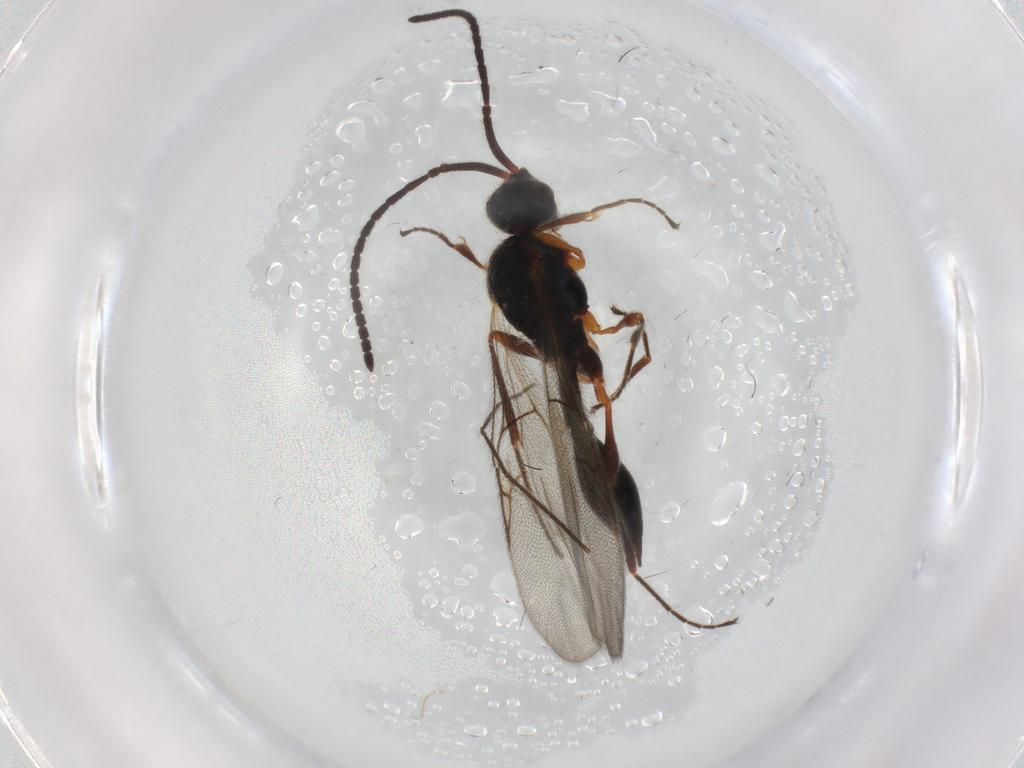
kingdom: Animalia
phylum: Arthropoda
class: Insecta
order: Hymenoptera
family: Diapriidae
